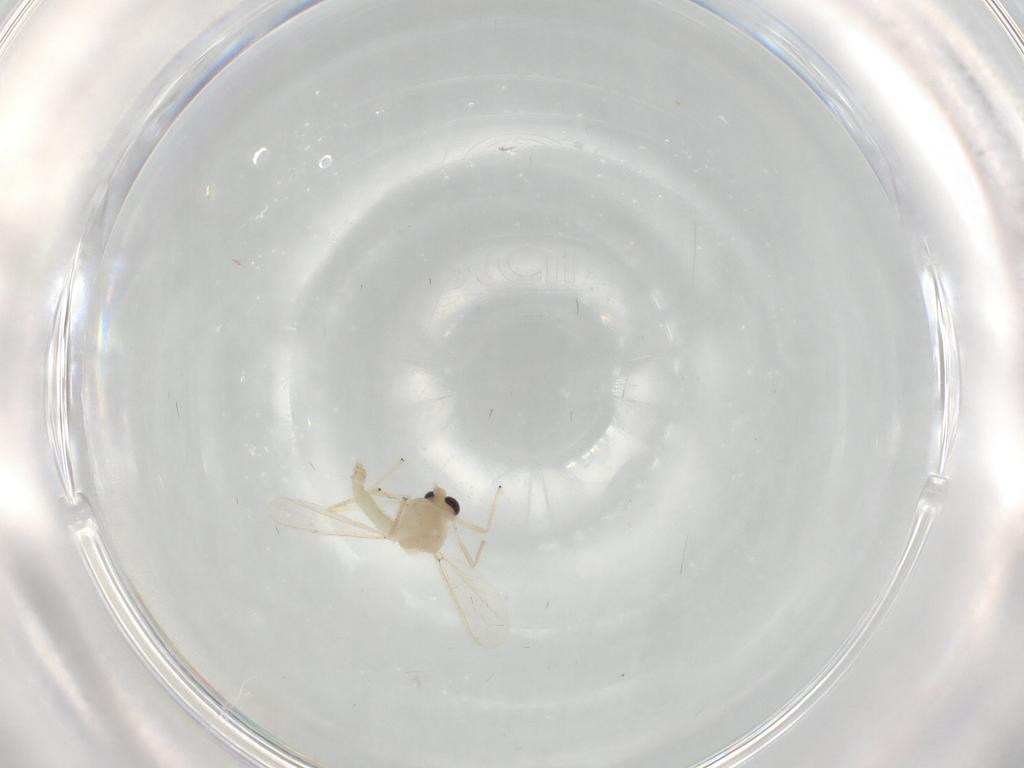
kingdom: Animalia
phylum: Arthropoda
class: Insecta
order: Diptera
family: Chironomidae
